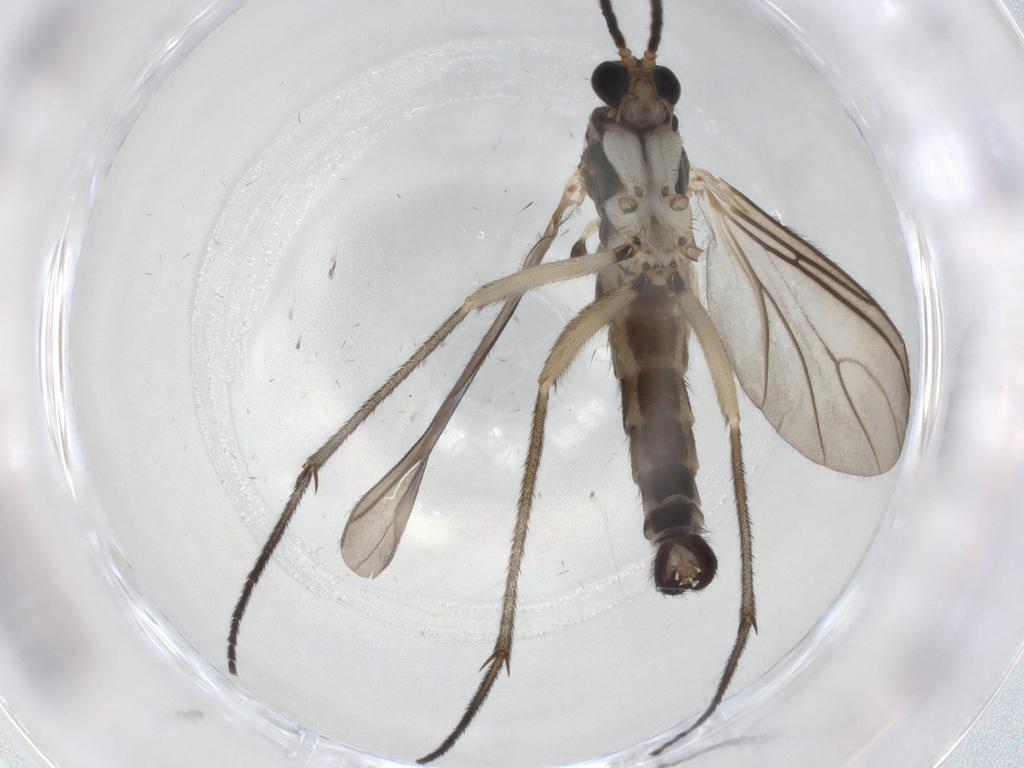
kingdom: Animalia
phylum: Arthropoda
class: Insecta
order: Diptera
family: Sciaridae
